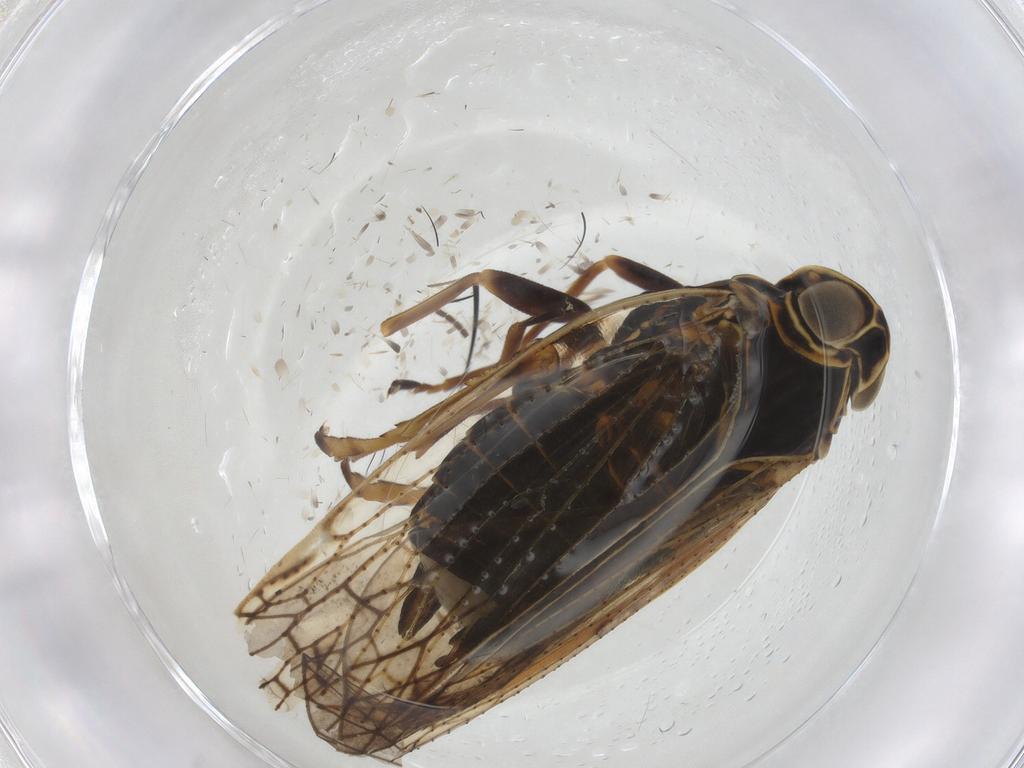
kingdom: Animalia
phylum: Arthropoda
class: Insecta
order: Hemiptera
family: Cixiidae
